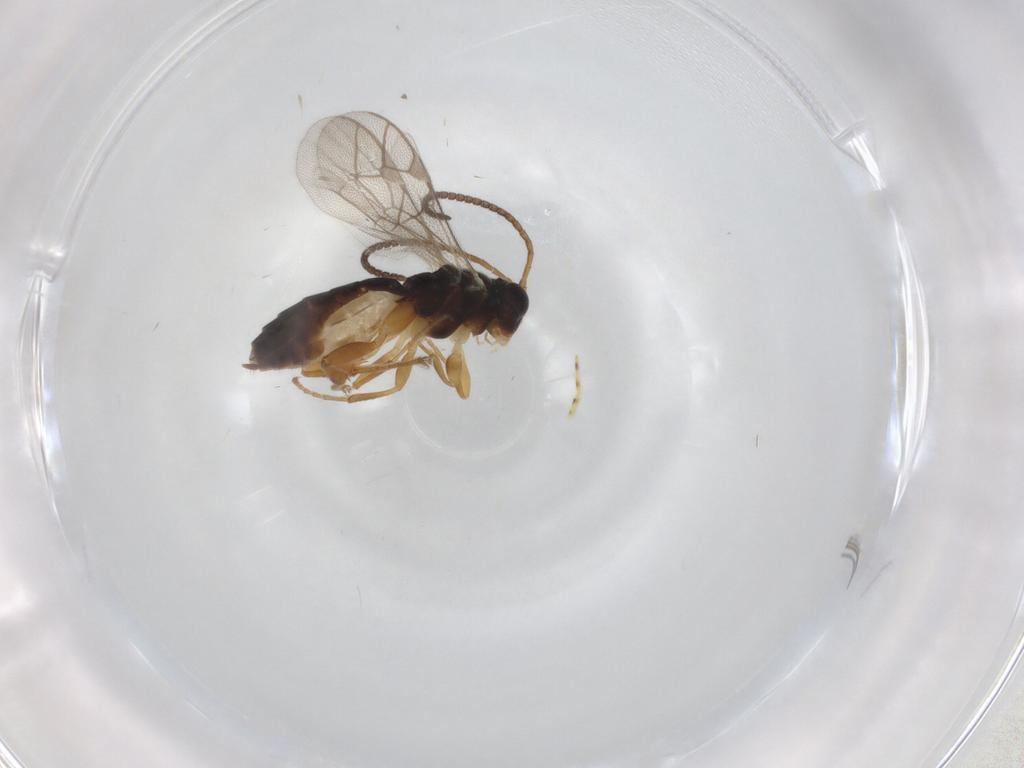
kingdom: Animalia
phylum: Arthropoda
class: Insecta
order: Hymenoptera
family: Ichneumonidae
